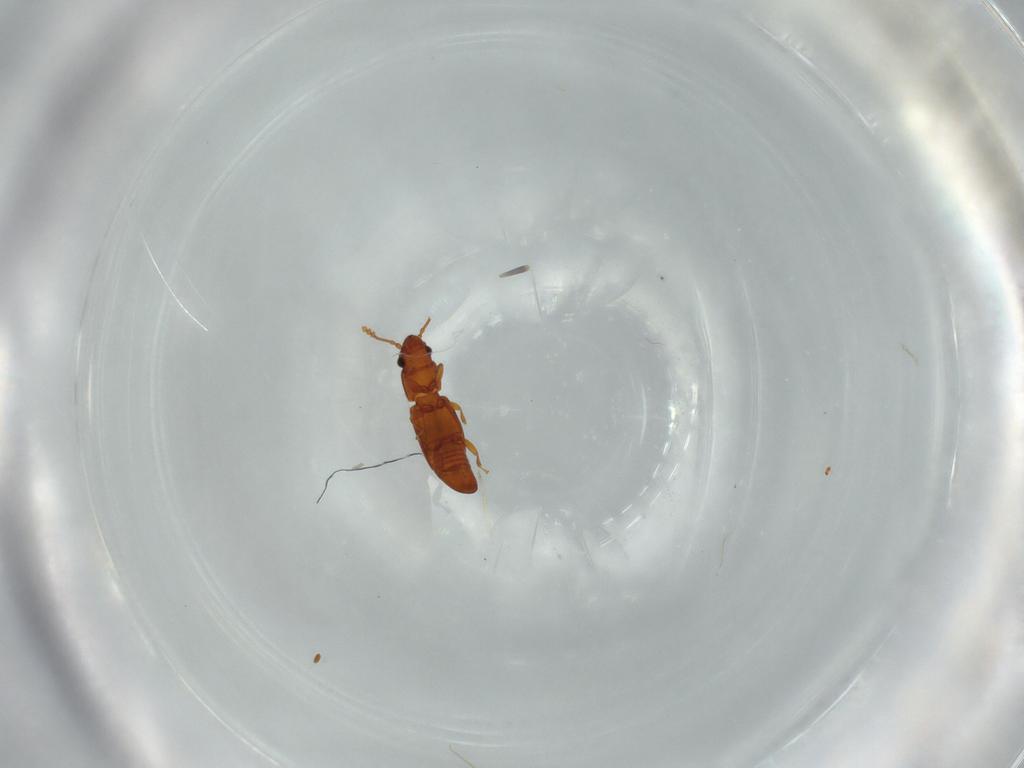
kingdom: Animalia
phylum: Arthropoda
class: Insecta
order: Coleoptera
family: Smicripidae
